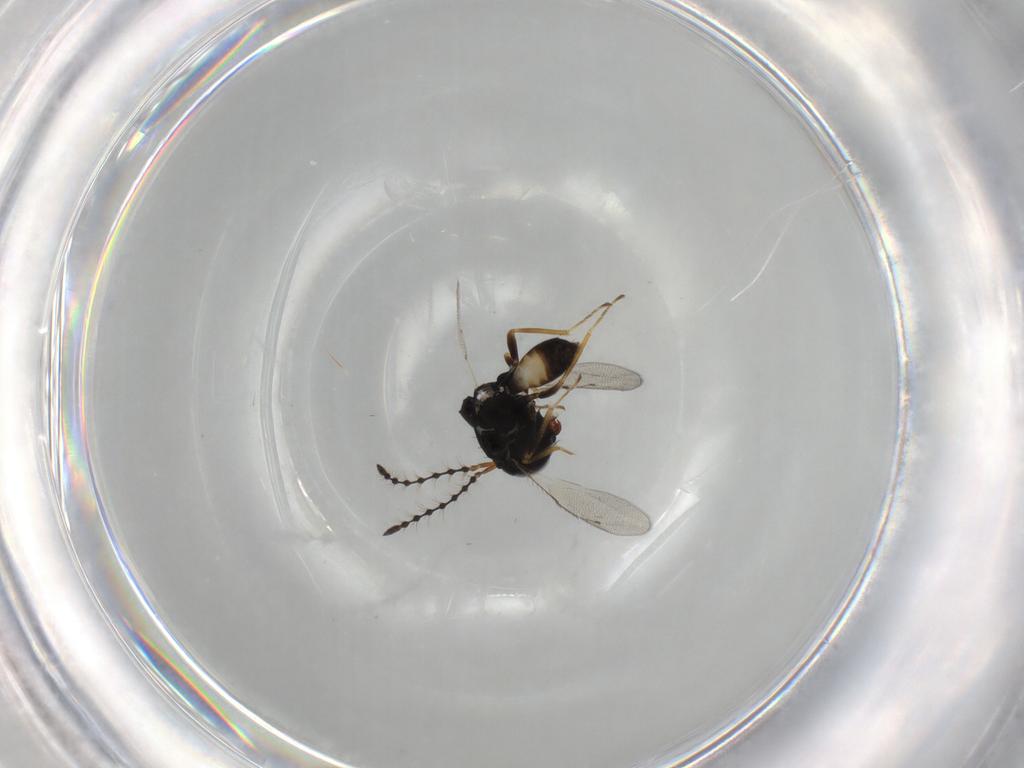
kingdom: Animalia
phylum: Arthropoda
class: Insecta
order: Hymenoptera
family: Pteromalidae
